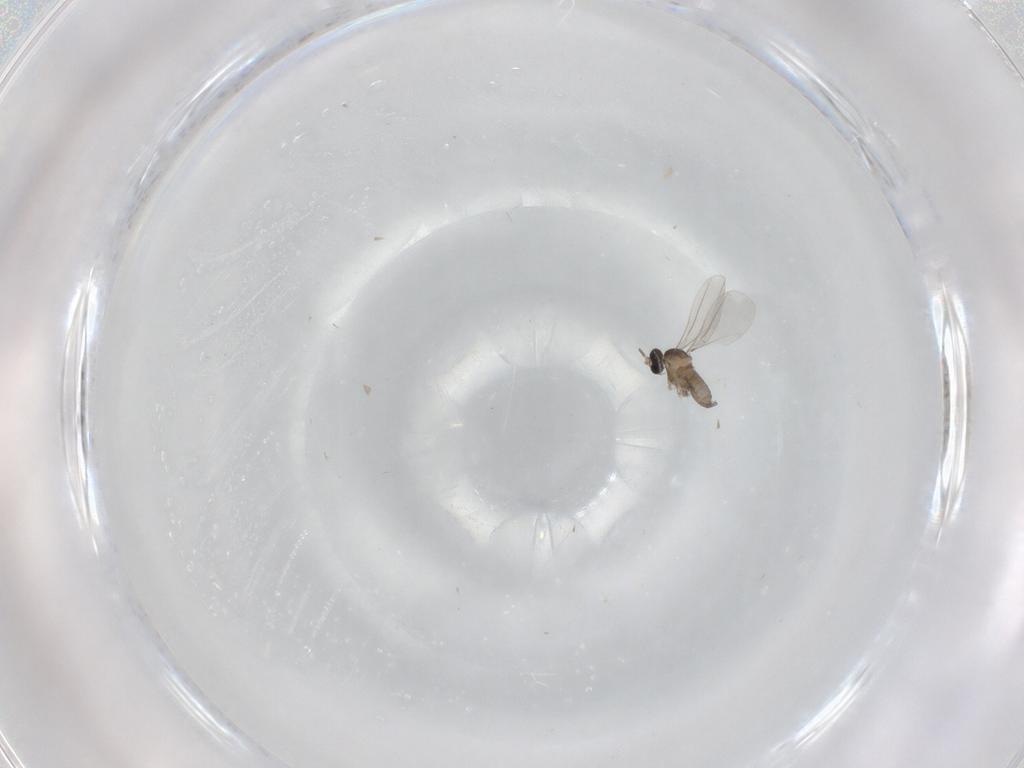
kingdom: Animalia
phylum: Arthropoda
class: Insecta
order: Diptera
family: Cecidomyiidae
